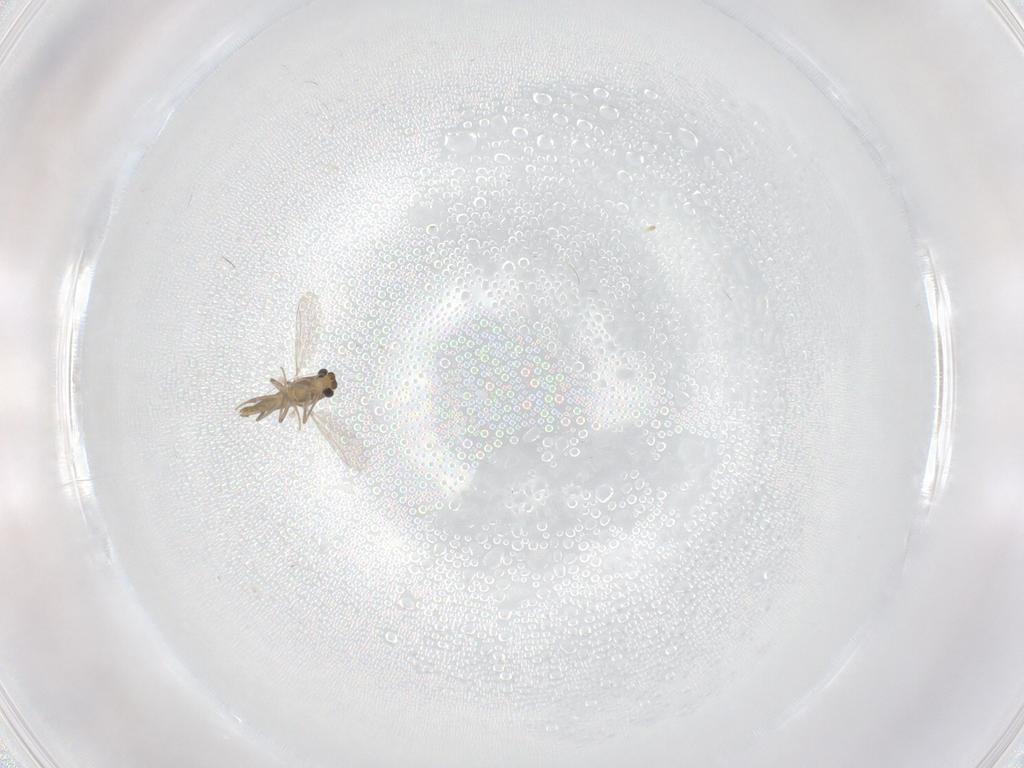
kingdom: Animalia
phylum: Arthropoda
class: Insecta
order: Diptera
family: Chironomidae
